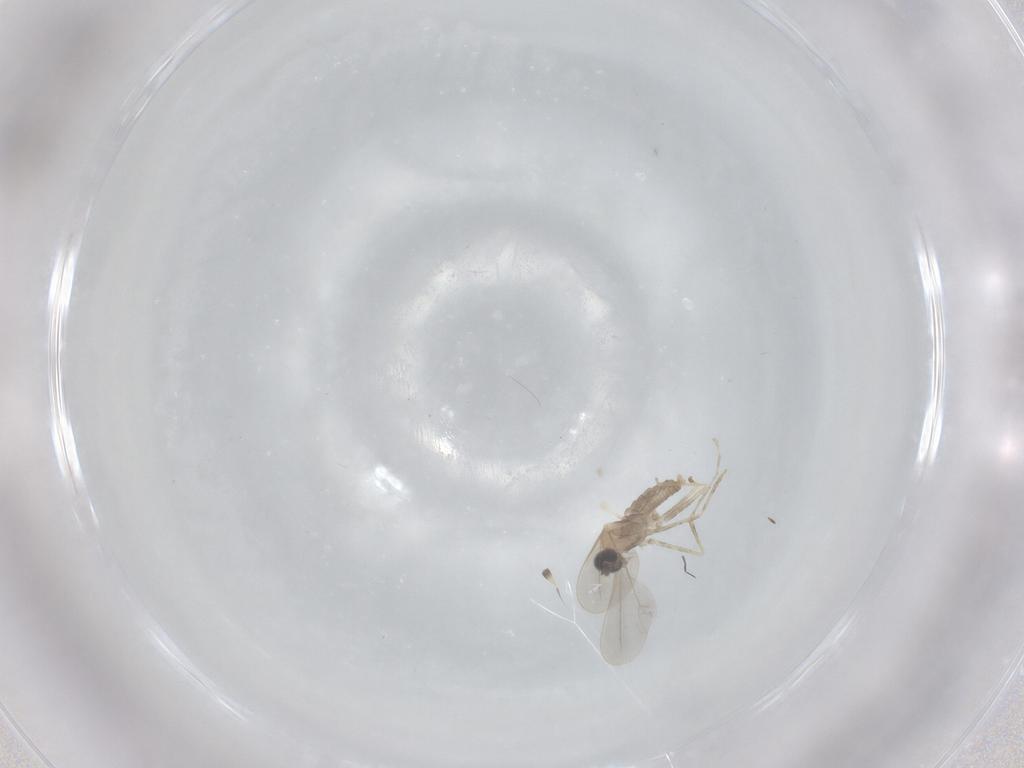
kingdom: Animalia
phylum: Arthropoda
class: Insecta
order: Diptera
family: Cecidomyiidae
